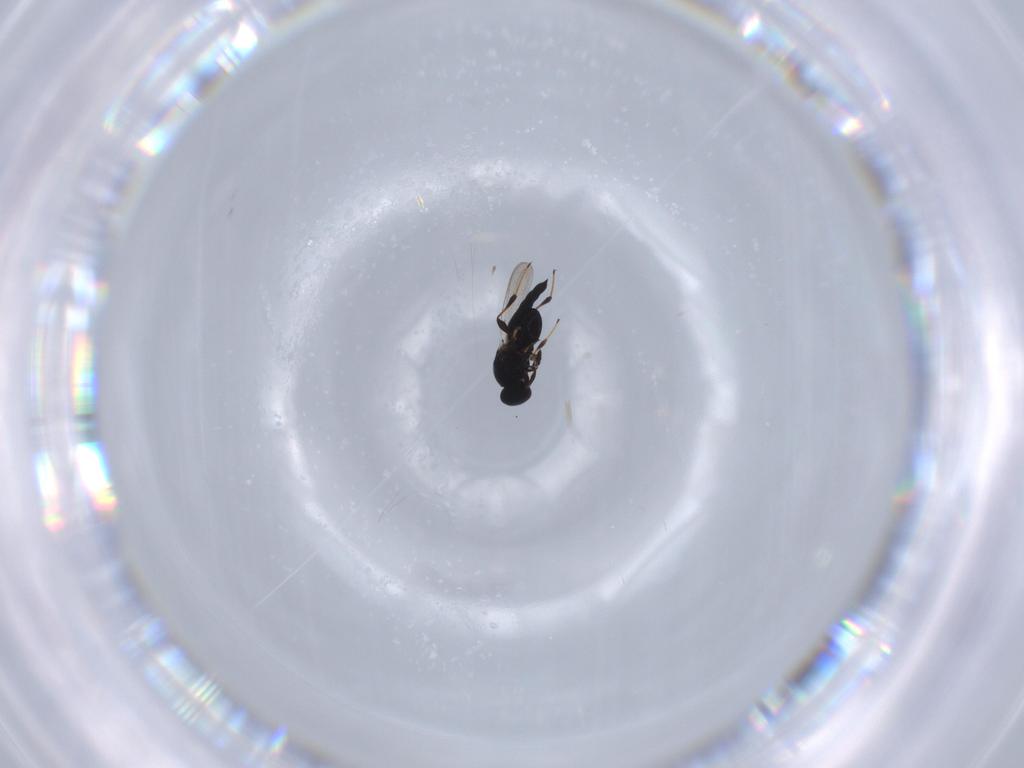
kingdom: Animalia
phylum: Arthropoda
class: Insecta
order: Hymenoptera
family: Platygastridae
